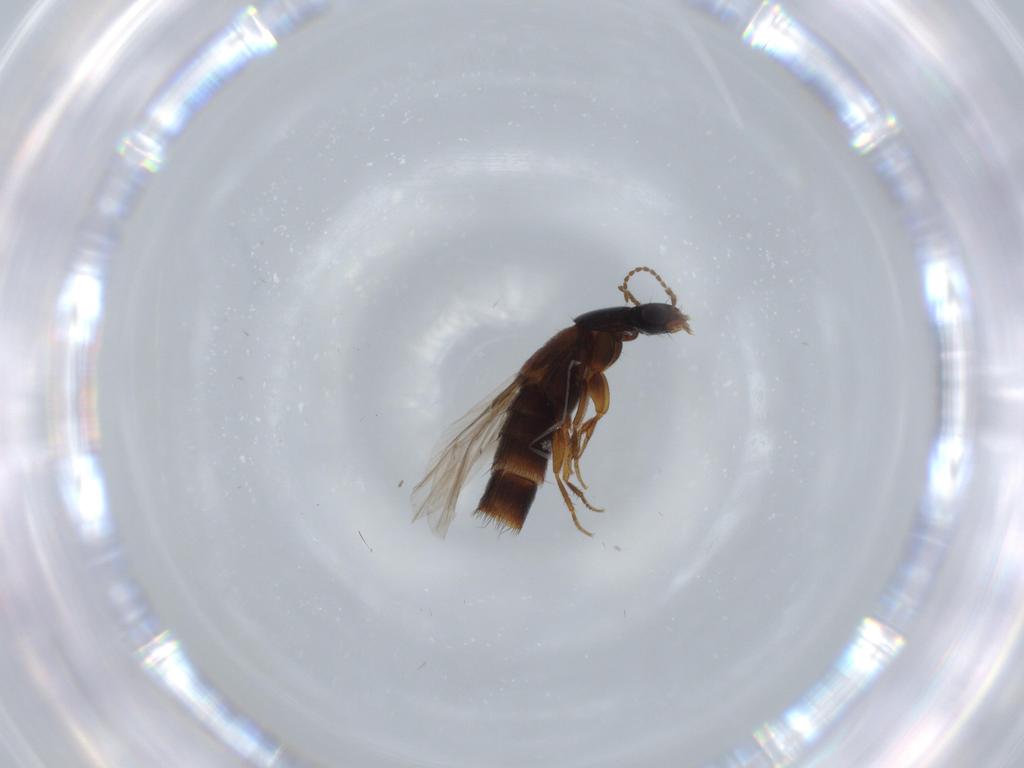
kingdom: Animalia
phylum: Arthropoda
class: Insecta
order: Coleoptera
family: Staphylinidae
